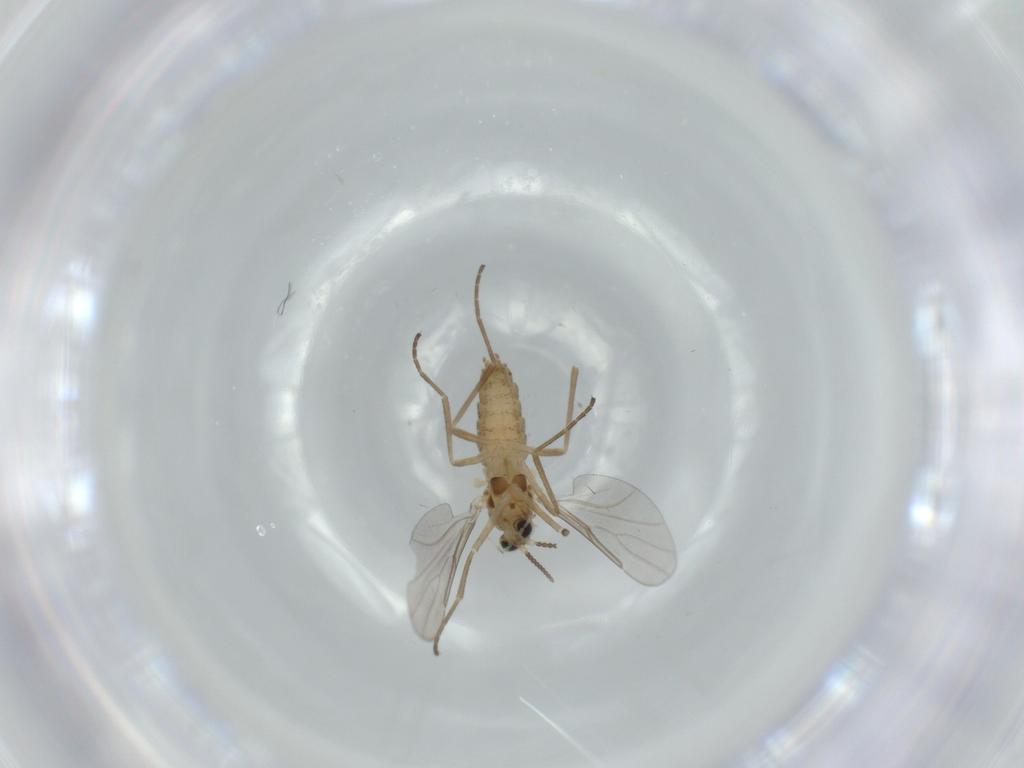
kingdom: Animalia
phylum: Arthropoda
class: Insecta
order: Diptera
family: Cecidomyiidae
